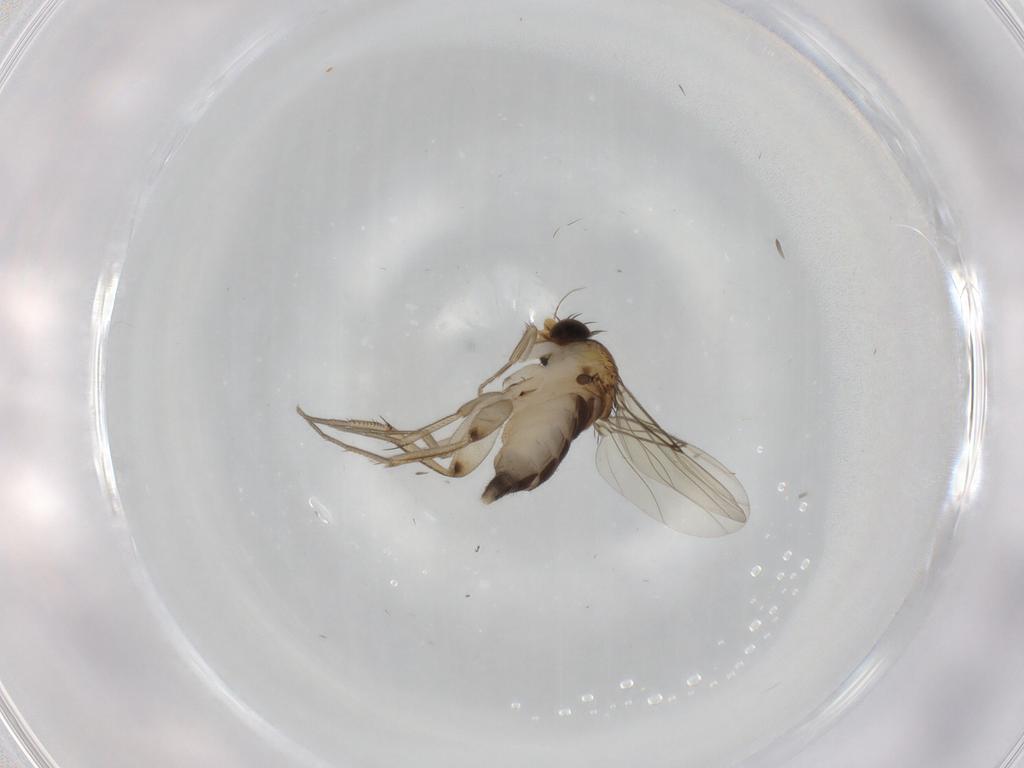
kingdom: Animalia
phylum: Arthropoda
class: Insecta
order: Diptera
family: Phoridae
